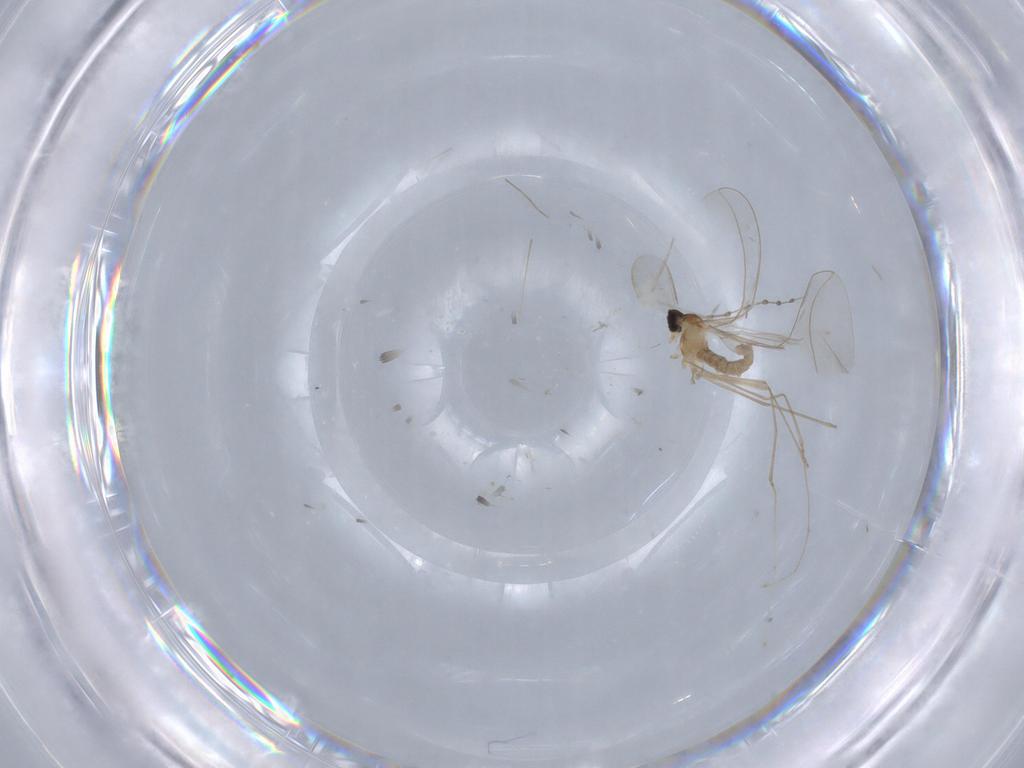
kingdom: Animalia
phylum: Arthropoda
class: Insecta
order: Diptera
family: Cecidomyiidae
